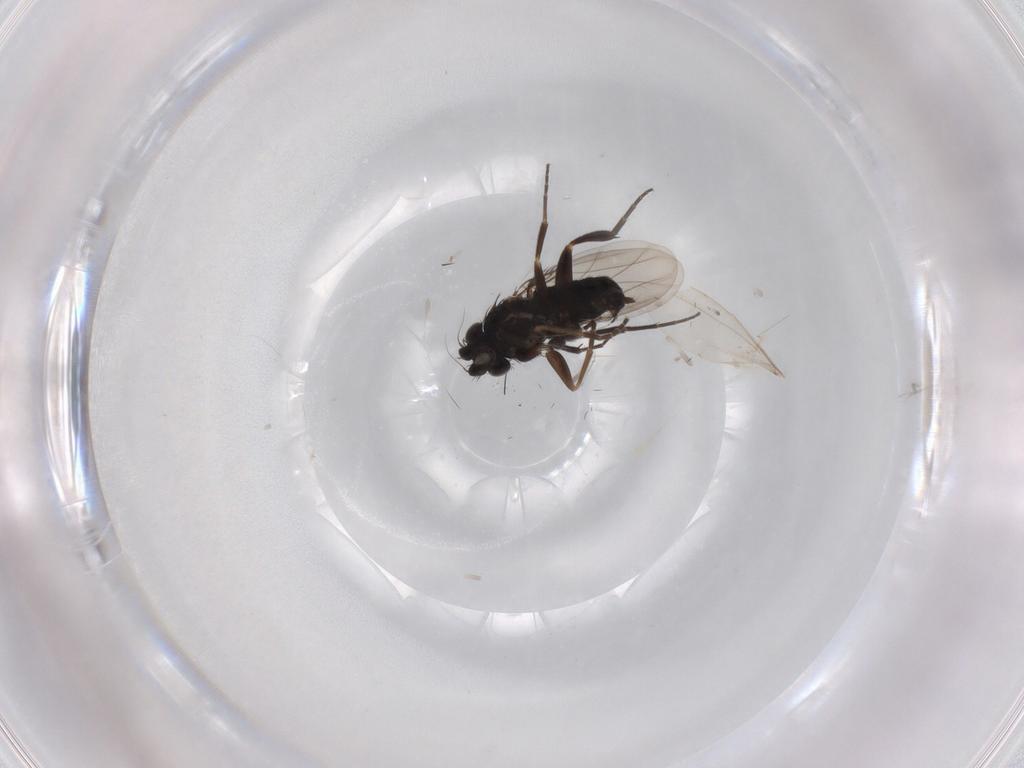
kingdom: Animalia
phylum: Arthropoda
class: Insecta
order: Diptera
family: Phoridae
